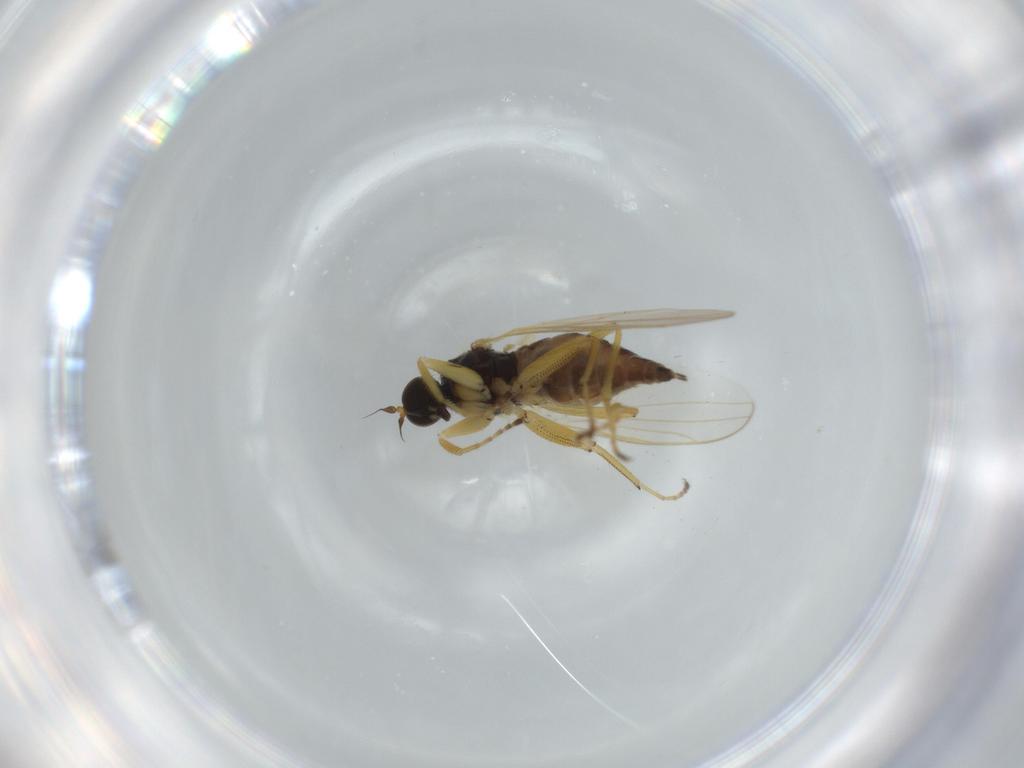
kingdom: Animalia
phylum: Arthropoda
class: Insecta
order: Diptera
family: Hybotidae
